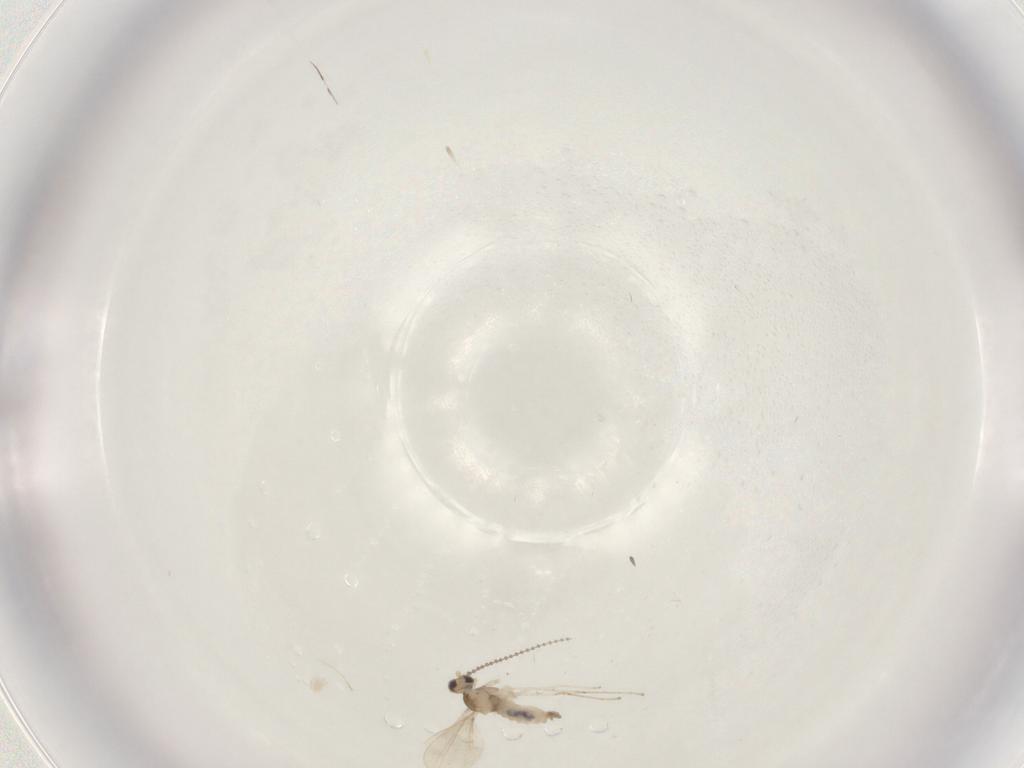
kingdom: Animalia
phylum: Arthropoda
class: Insecta
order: Diptera
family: Cecidomyiidae
